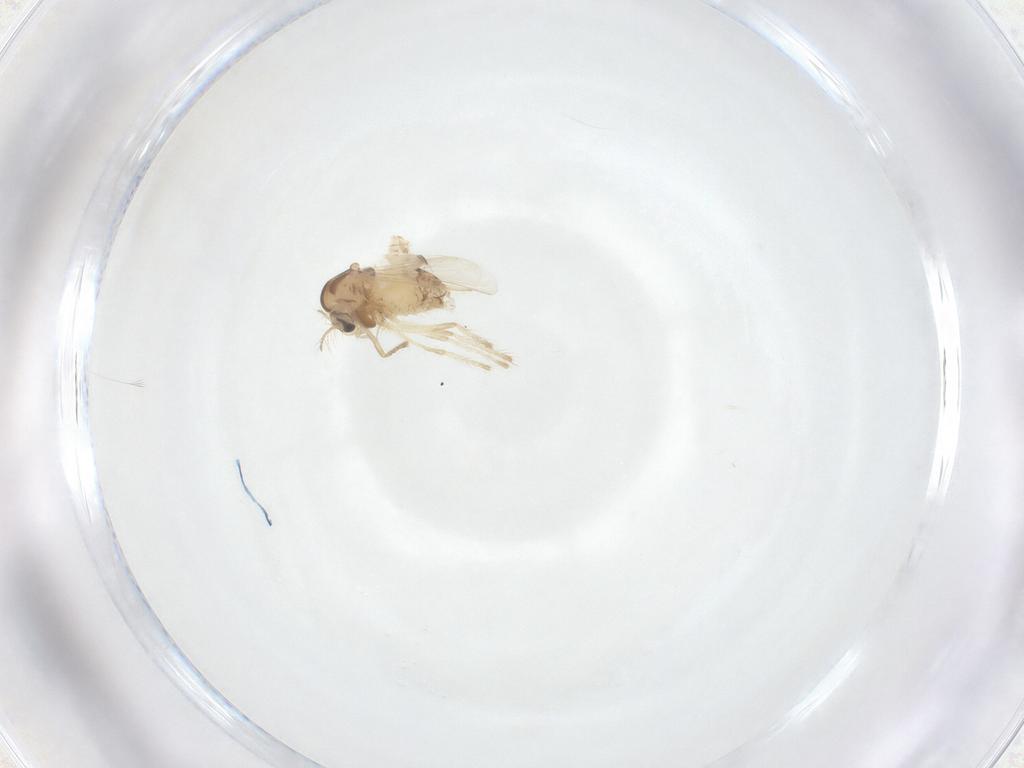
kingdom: Animalia
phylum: Arthropoda
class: Insecta
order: Diptera
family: Chironomidae
